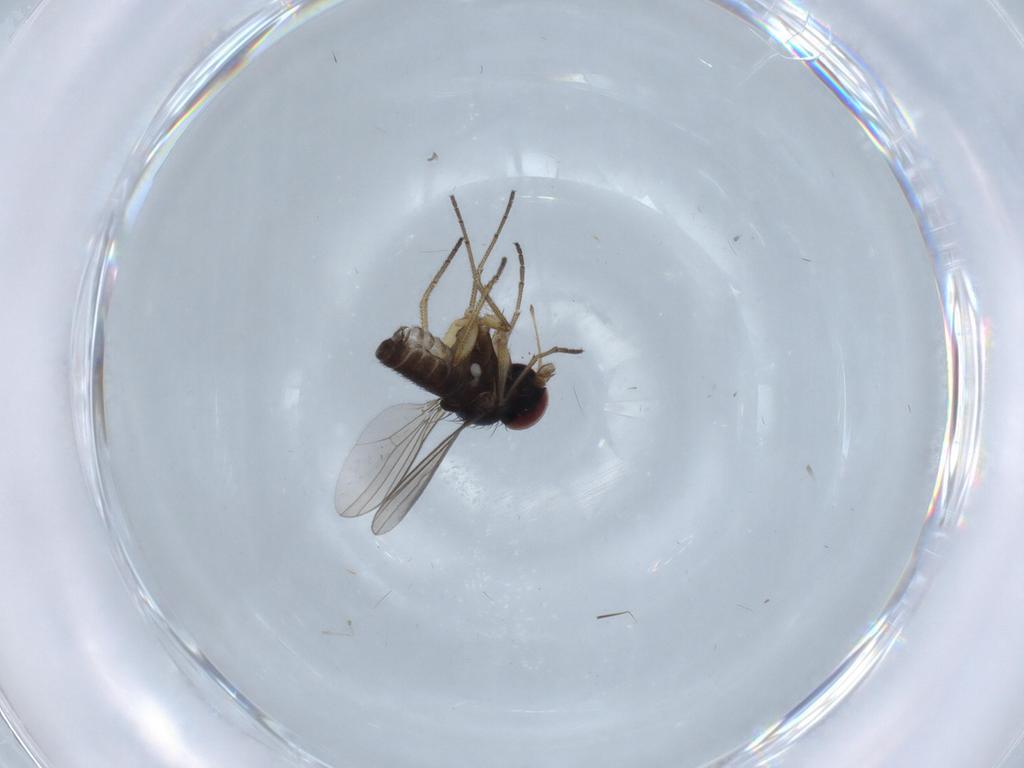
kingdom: Animalia
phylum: Arthropoda
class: Insecta
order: Diptera
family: Dolichopodidae
